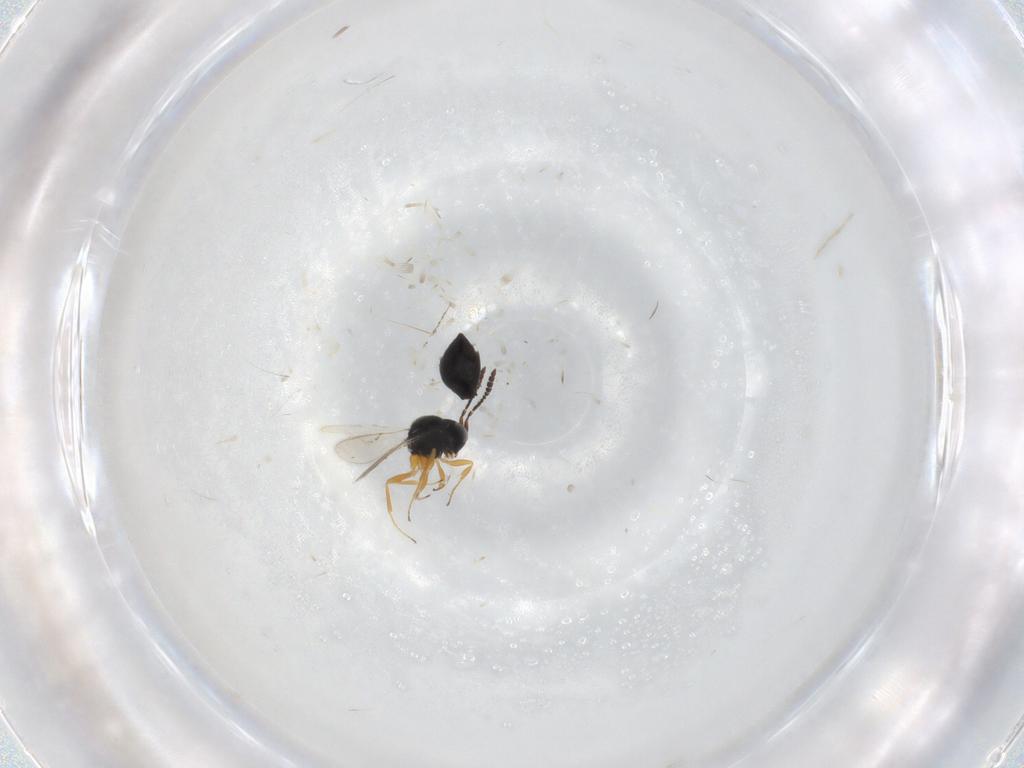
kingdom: Animalia
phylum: Arthropoda
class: Insecta
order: Hymenoptera
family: Scelionidae
